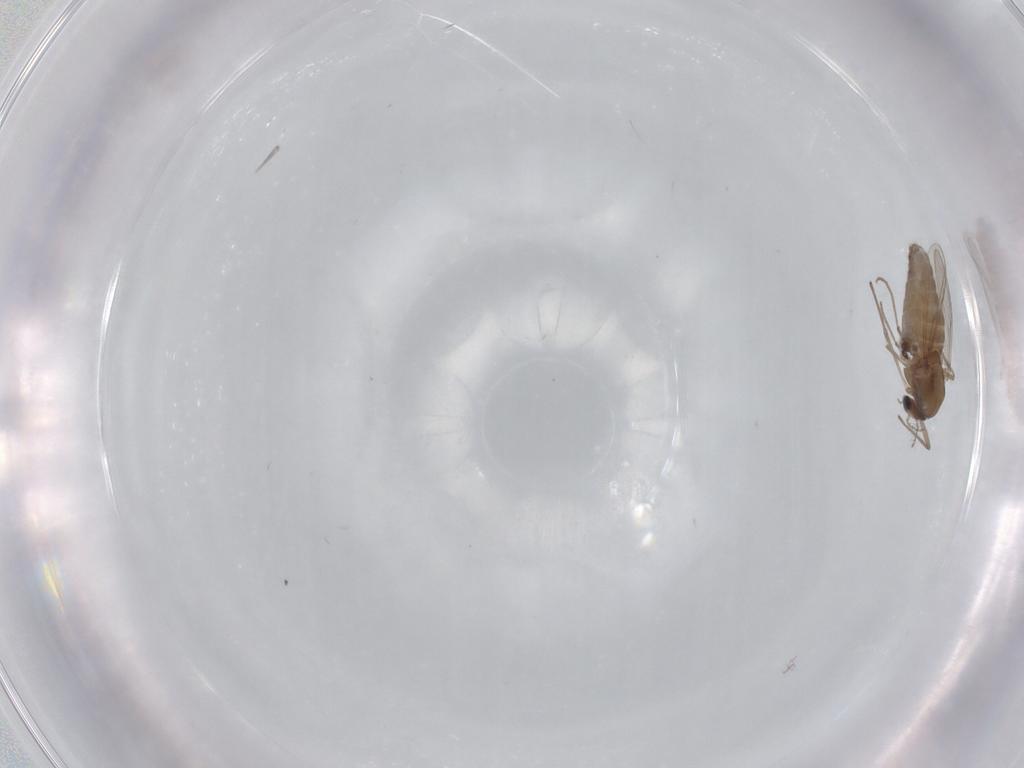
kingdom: Animalia
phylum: Arthropoda
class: Insecta
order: Diptera
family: Chironomidae
